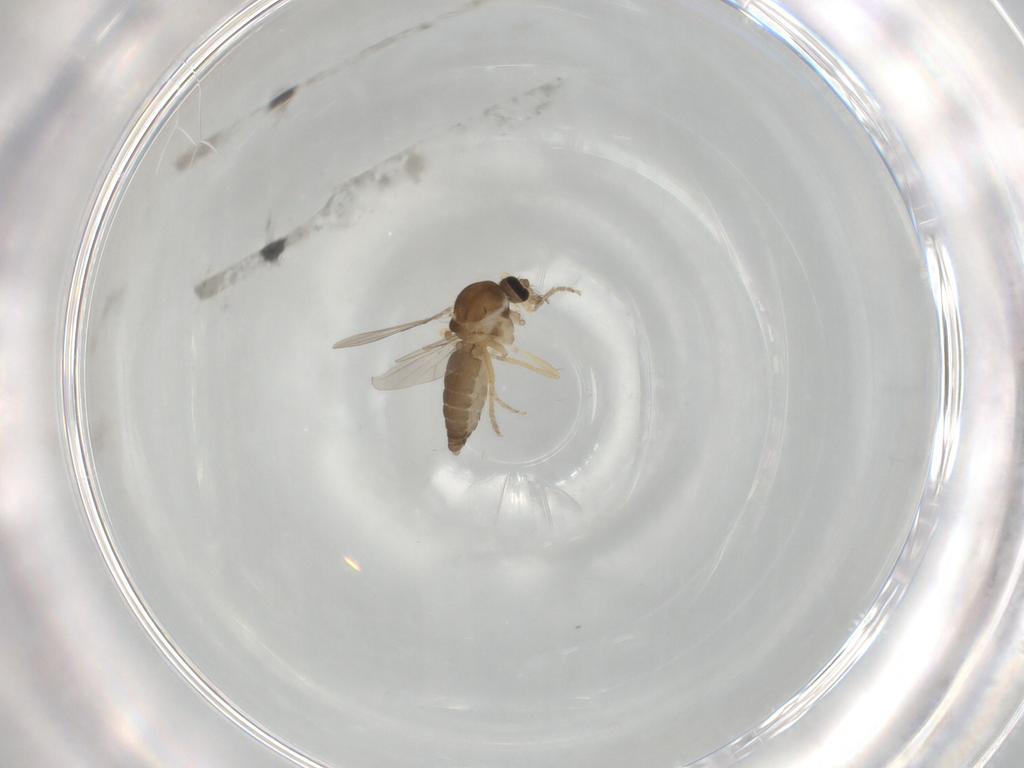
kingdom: Animalia
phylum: Arthropoda
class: Insecta
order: Diptera
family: Ceratopogonidae
